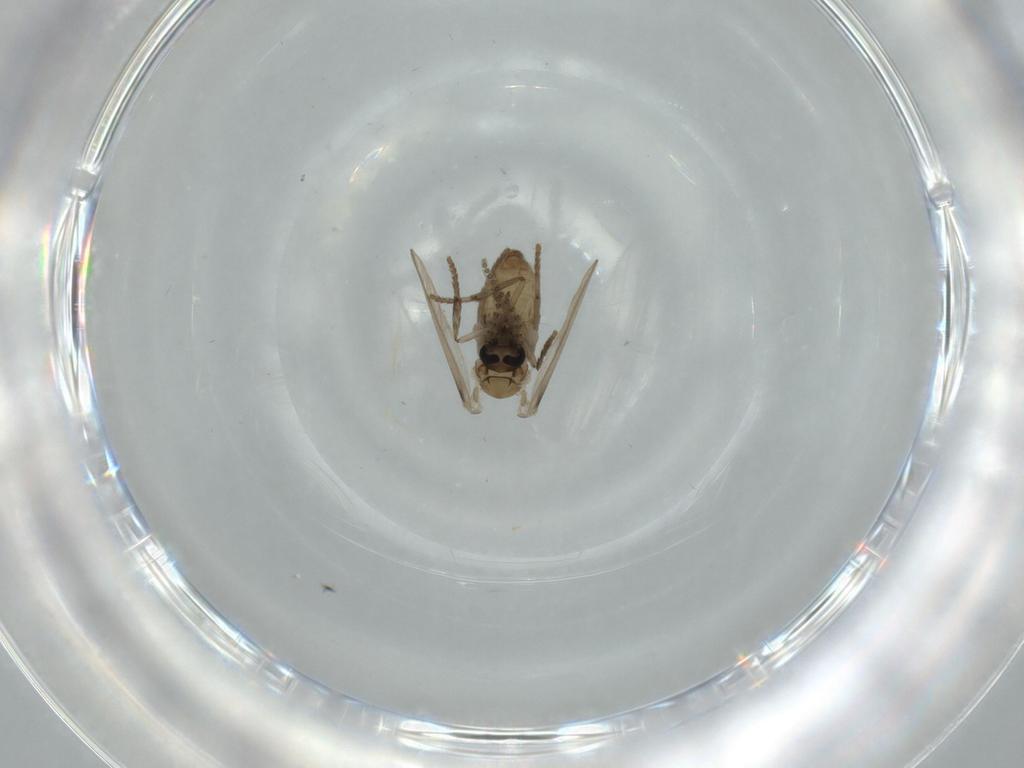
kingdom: Animalia
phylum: Arthropoda
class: Insecta
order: Diptera
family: Psychodidae
